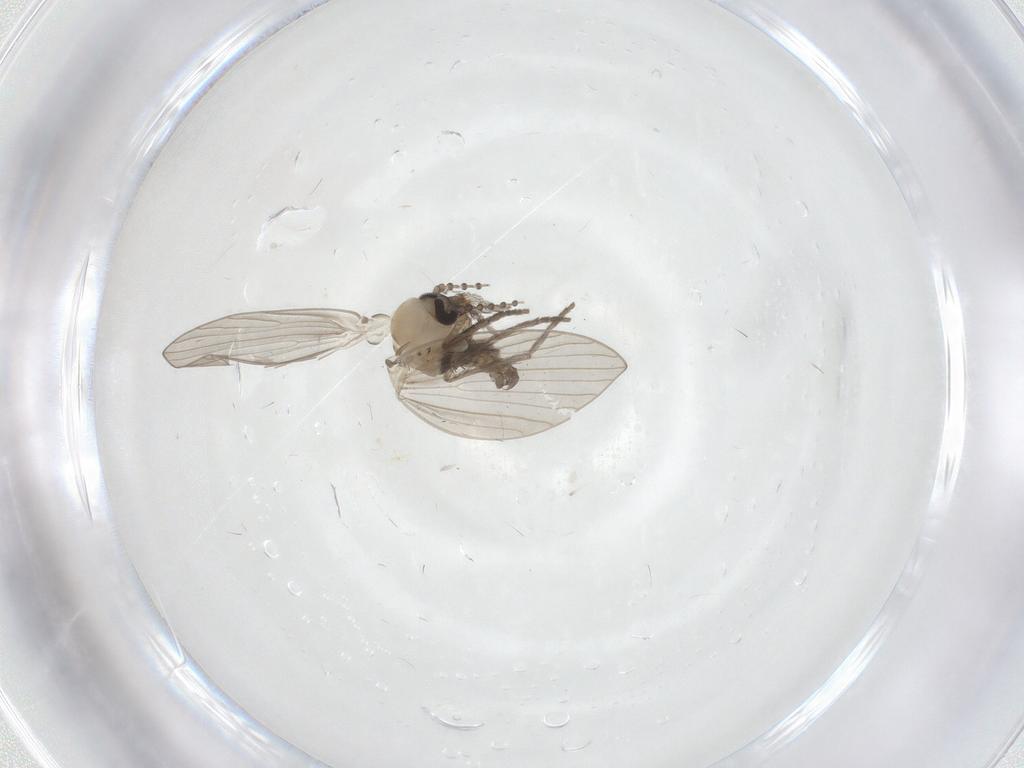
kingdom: Animalia
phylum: Arthropoda
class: Insecta
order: Diptera
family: Psychodidae
